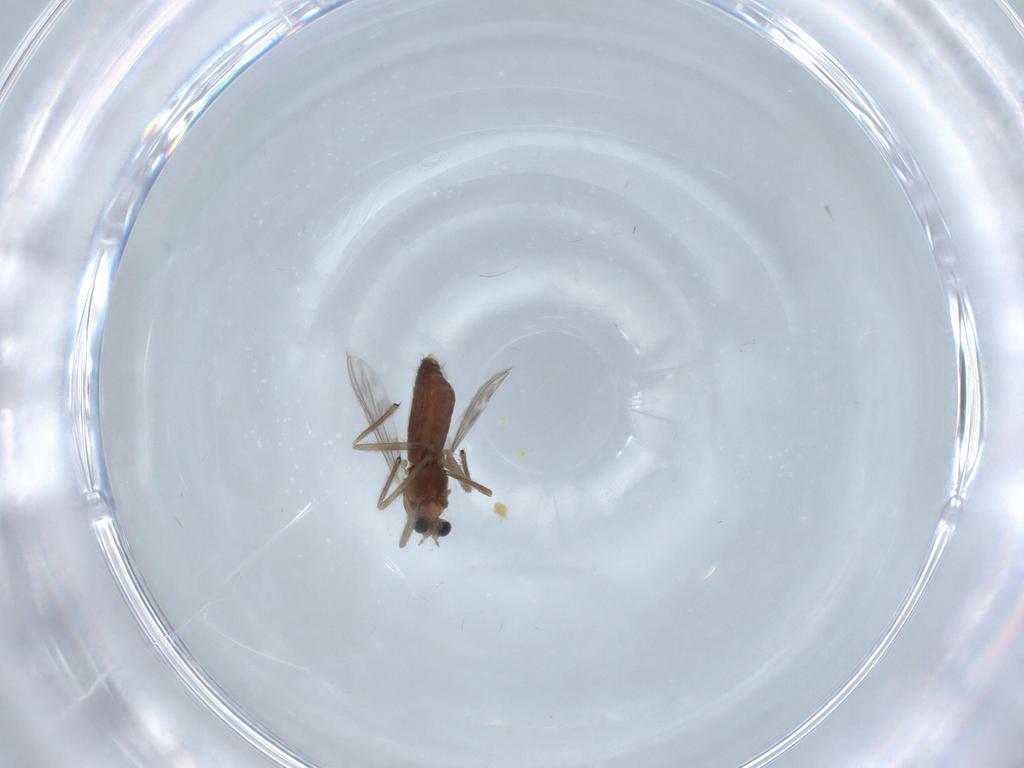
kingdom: Animalia
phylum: Arthropoda
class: Insecta
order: Diptera
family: Chironomidae
